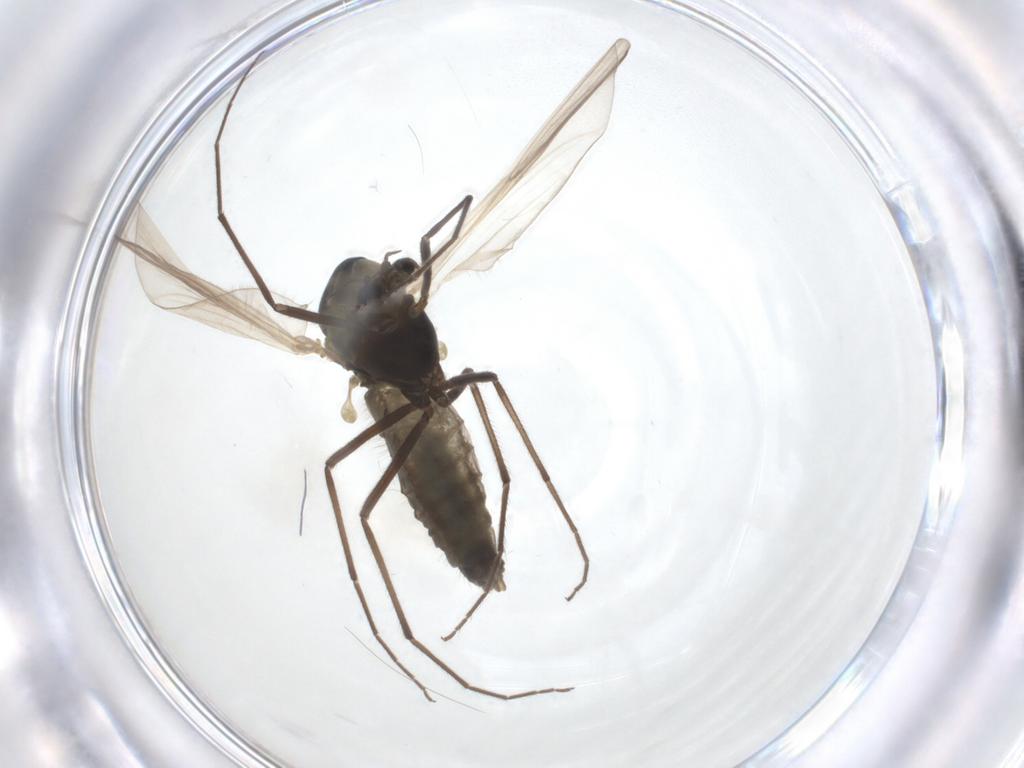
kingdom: Animalia
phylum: Arthropoda
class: Insecta
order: Diptera
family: Chironomidae
